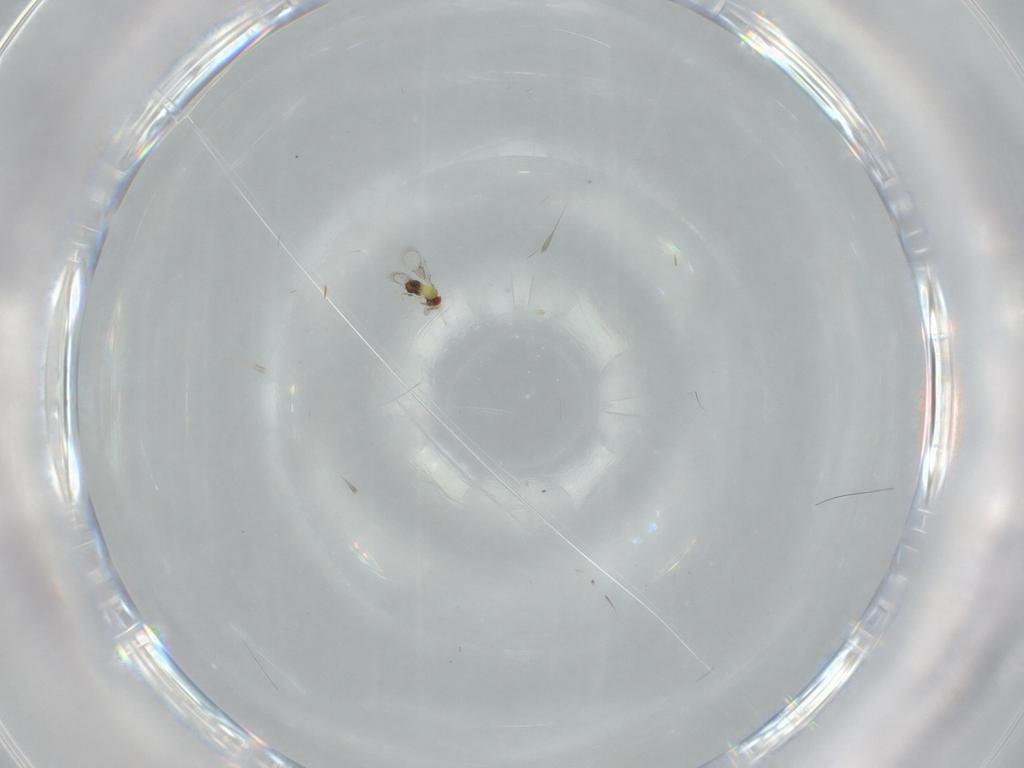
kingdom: Animalia
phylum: Arthropoda
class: Insecta
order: Hymenoptera
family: Trichogrammatidae
